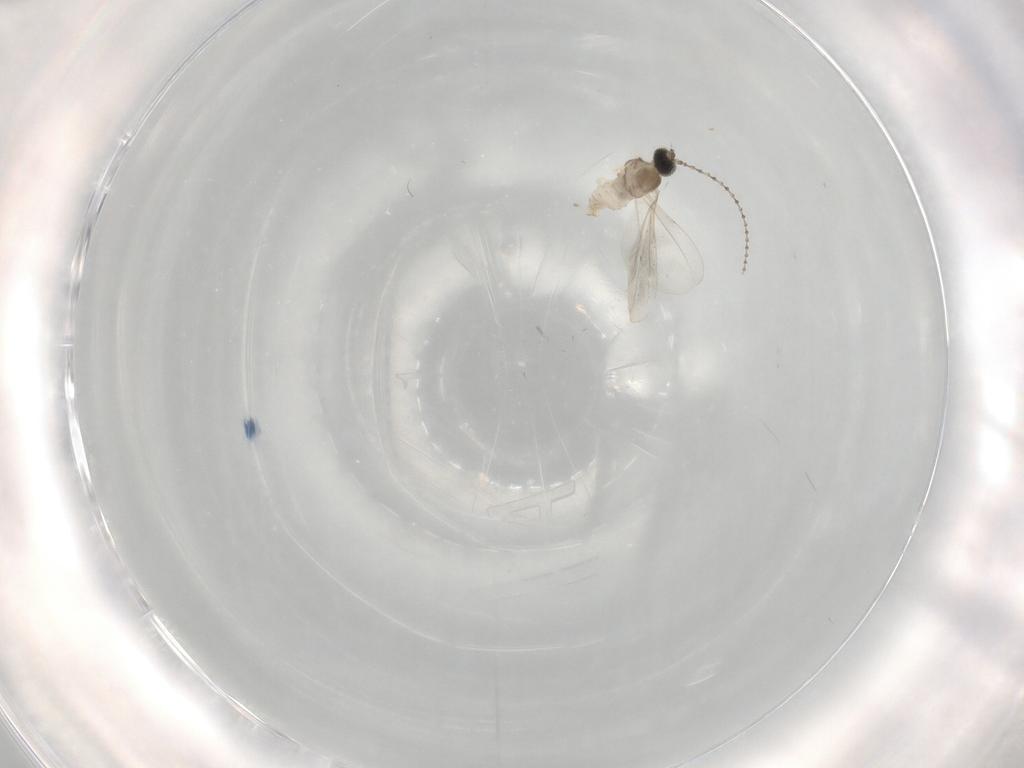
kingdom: Animalia
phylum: Arthropoda
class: Insecta
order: Diptera
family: Cecidomyiidae
